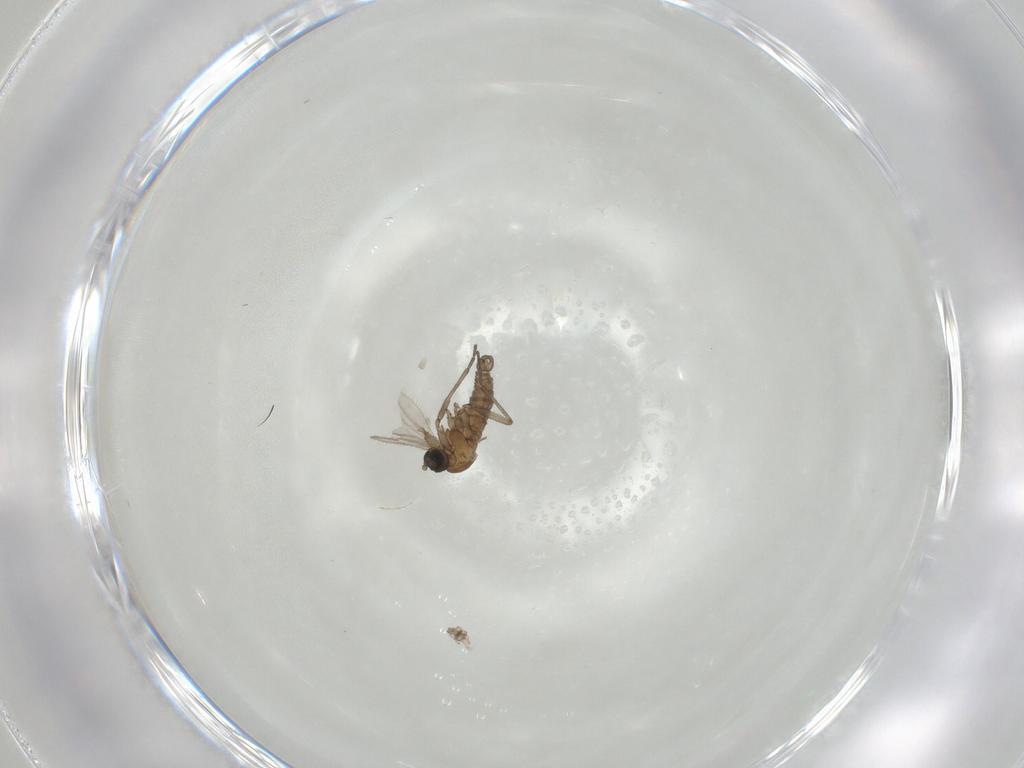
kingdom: Animalia
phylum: Arthropoda
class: Insecta
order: Diptera
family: Sciaridae
